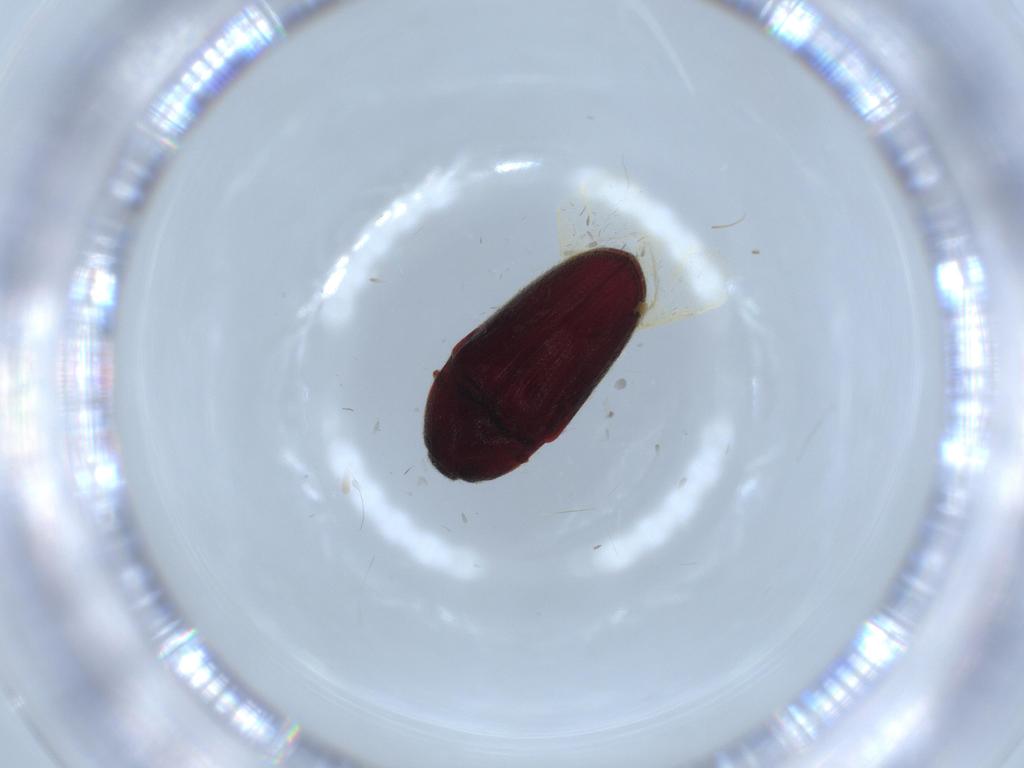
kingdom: Animalia
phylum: Arthropoda
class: Insecta
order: Coleoptera
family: Throscidae
